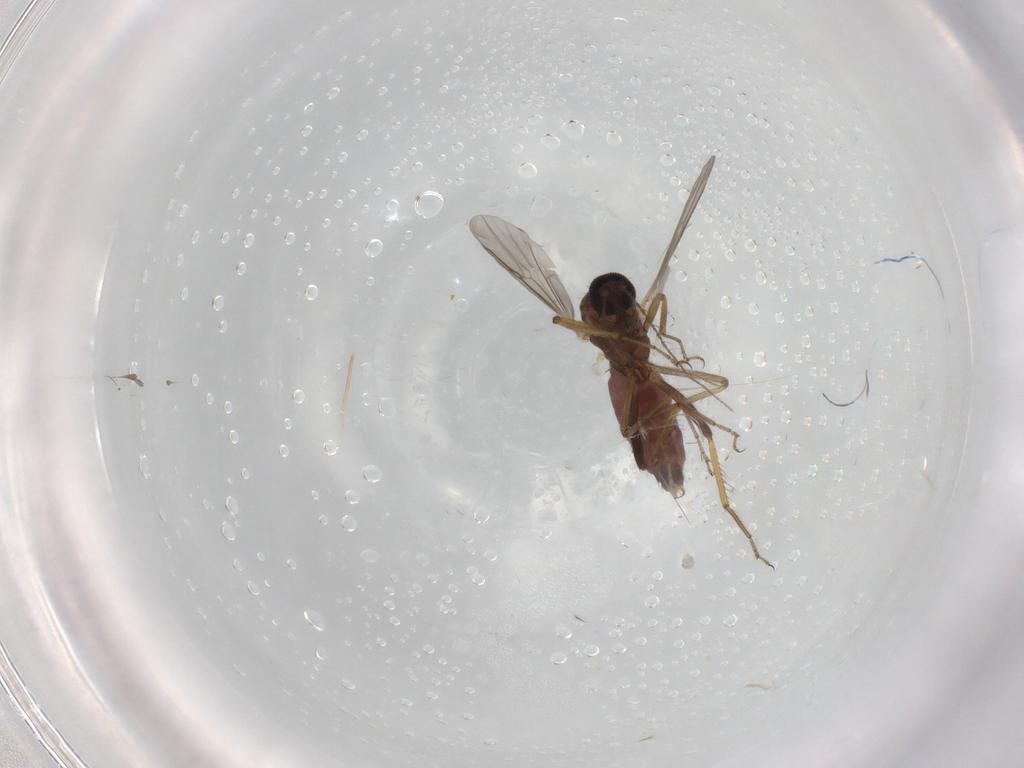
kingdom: Animalia
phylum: Arthropoda
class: Insecta
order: Diptera
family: Ceratopogonidae
